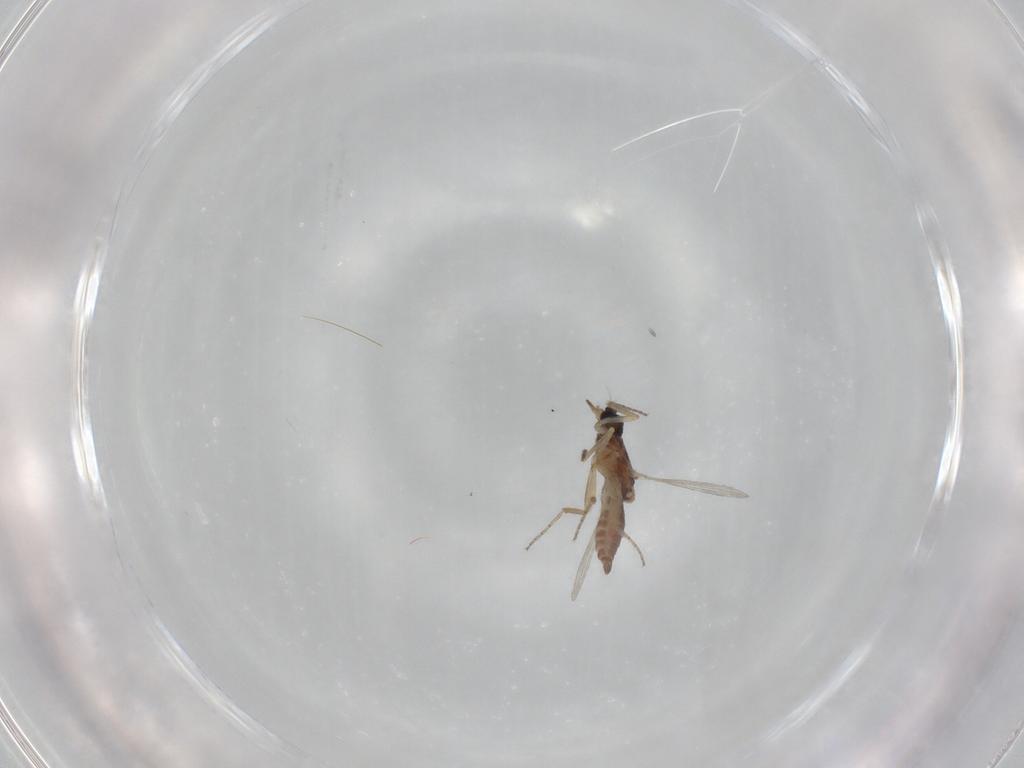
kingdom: Animalia
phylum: Arthropoda
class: Insecta
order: Diptera
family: Ceratopogonidae
